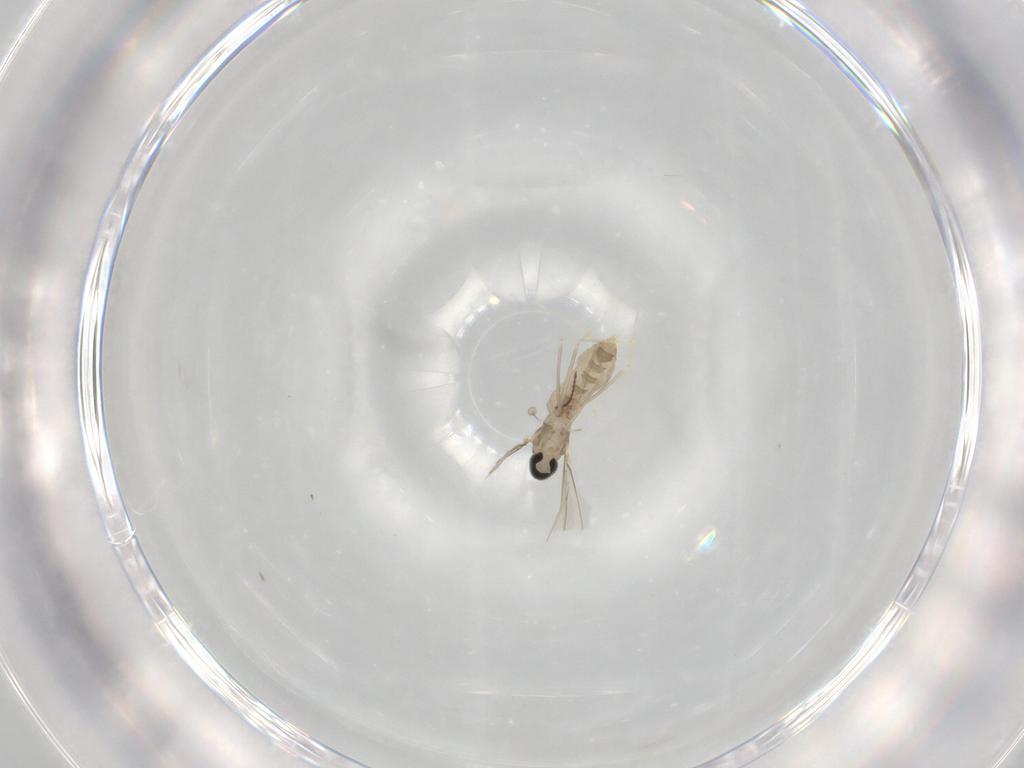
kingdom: Animalia
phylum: Arthropoda
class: Insecta
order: Diptera
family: Cecidomyiidae
